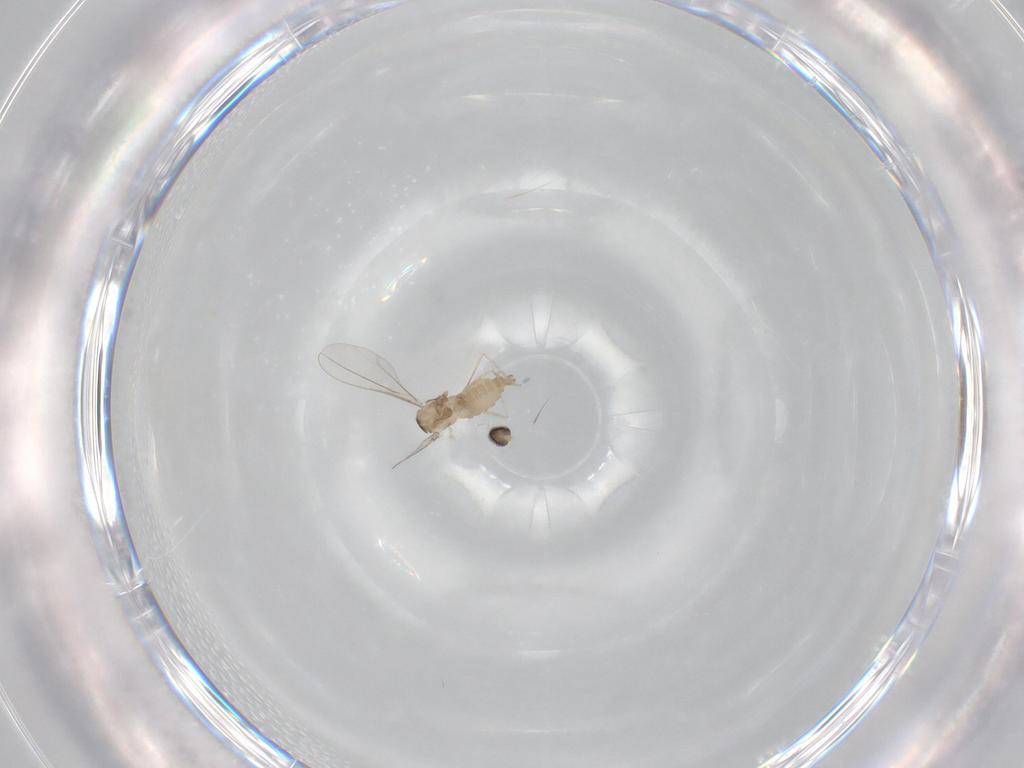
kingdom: Animalia
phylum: Arthropoda
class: Insecta
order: Diptera
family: Cecidomyiidae
